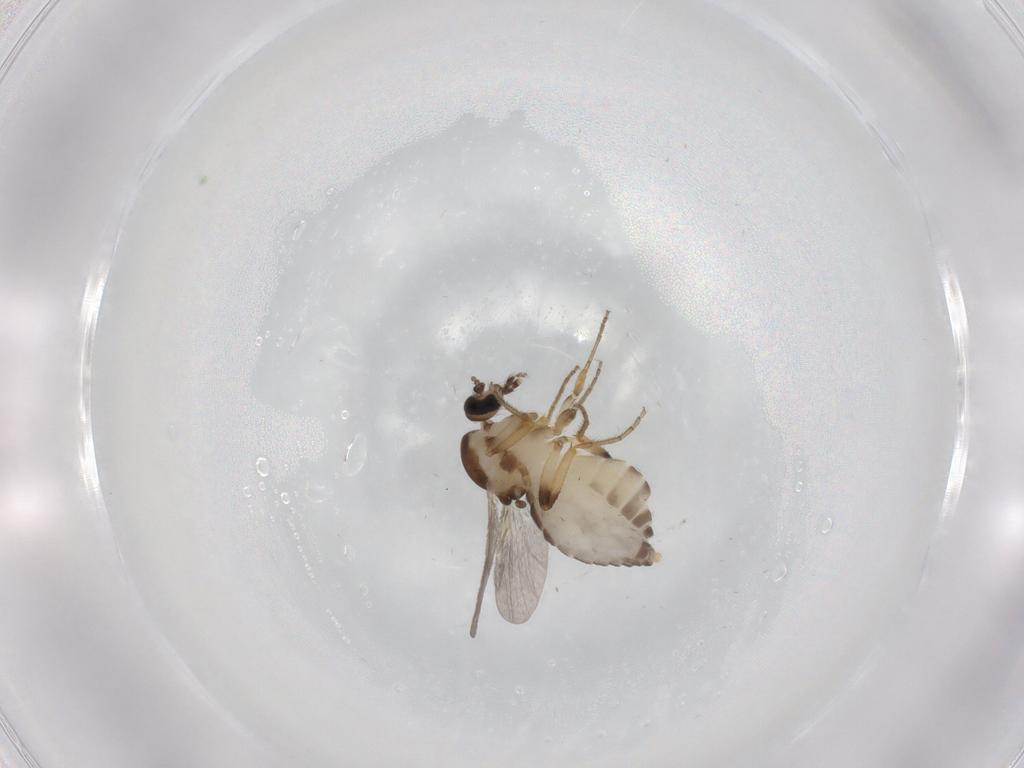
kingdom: Animalia
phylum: Arthropoda
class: Insecta
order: Diptera
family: Ceratopogonidae
